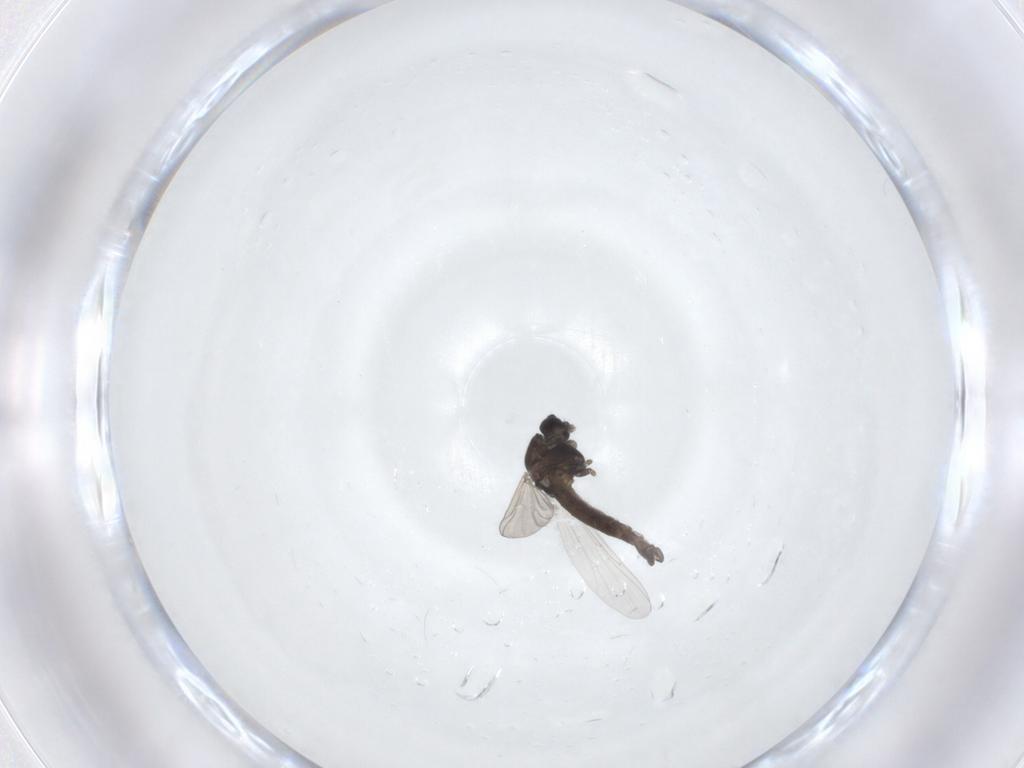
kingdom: Animalia
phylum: Arthropoda
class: Insecta
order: Diptera
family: Chironomidae
